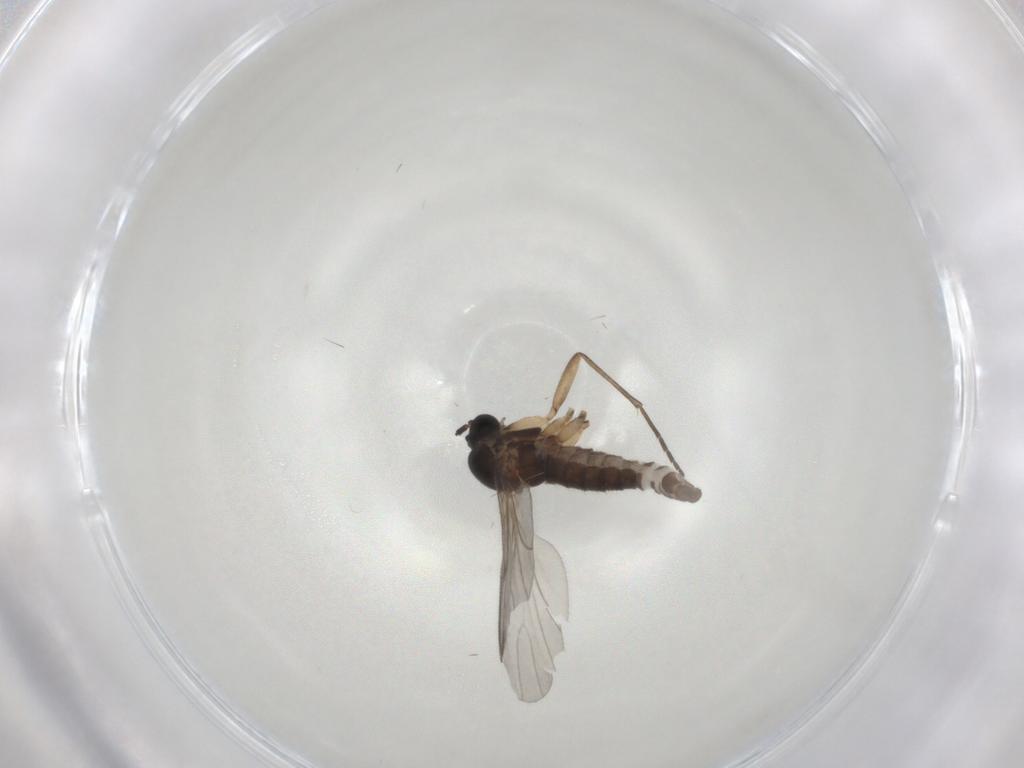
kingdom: Animalia
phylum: Arthropoda
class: Insecta
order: Diptera
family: Sciaridae
